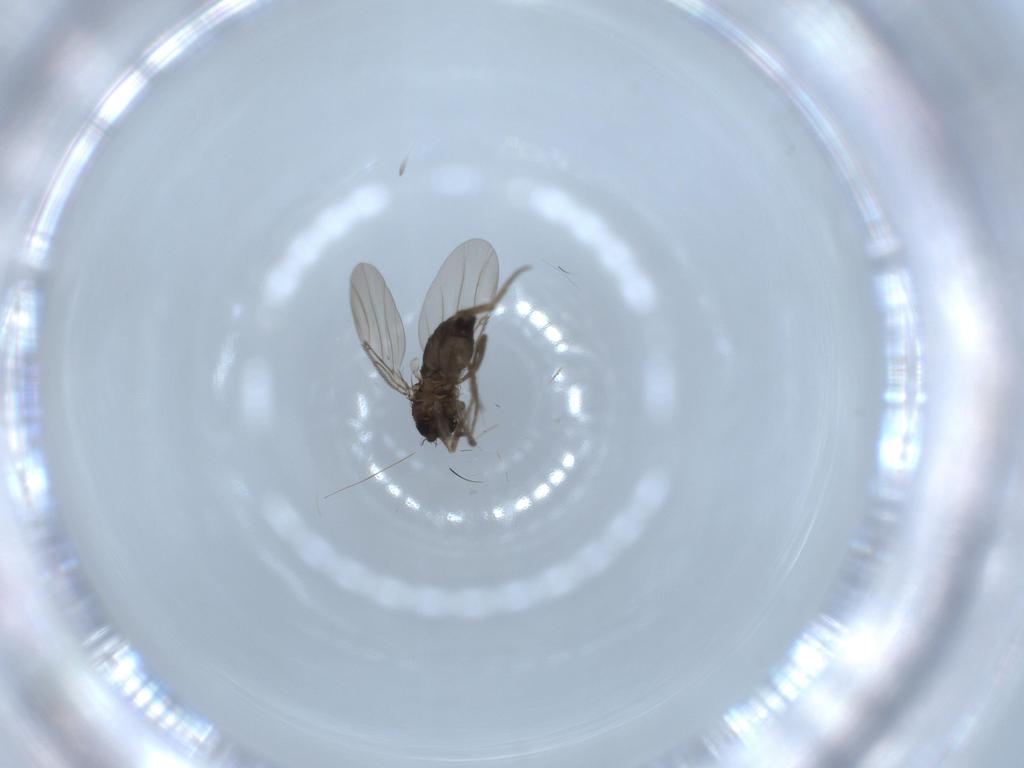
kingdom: Animalia
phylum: Arthropoda
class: Insecta
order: Diptera
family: Phoridae
